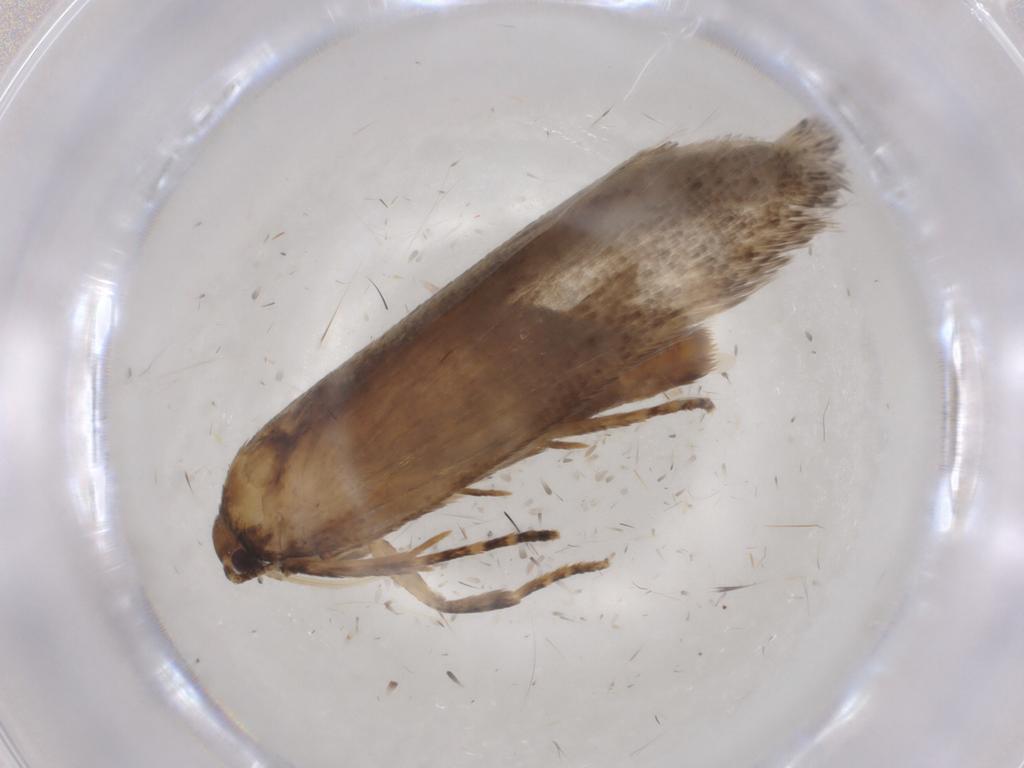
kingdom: Animalia
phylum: Arthropoda
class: Insecta
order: Lepidoptera
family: Gelechiidae
